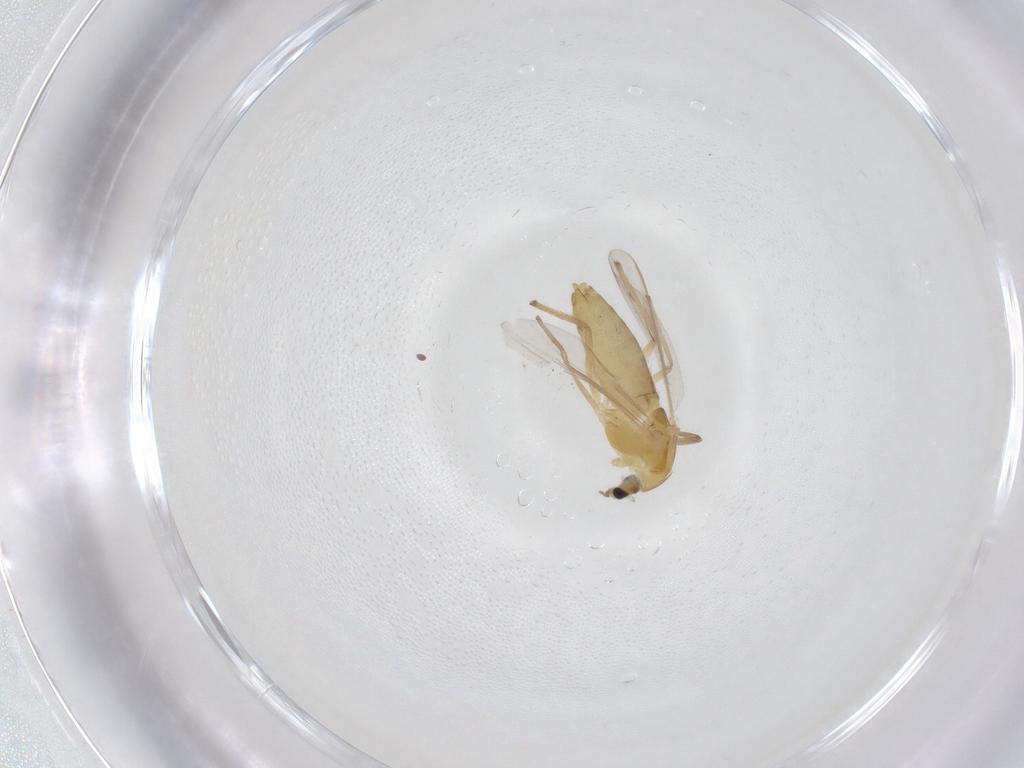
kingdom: Animalia
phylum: Arthropoda
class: Insecta
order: Diptera
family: Chironomidae
